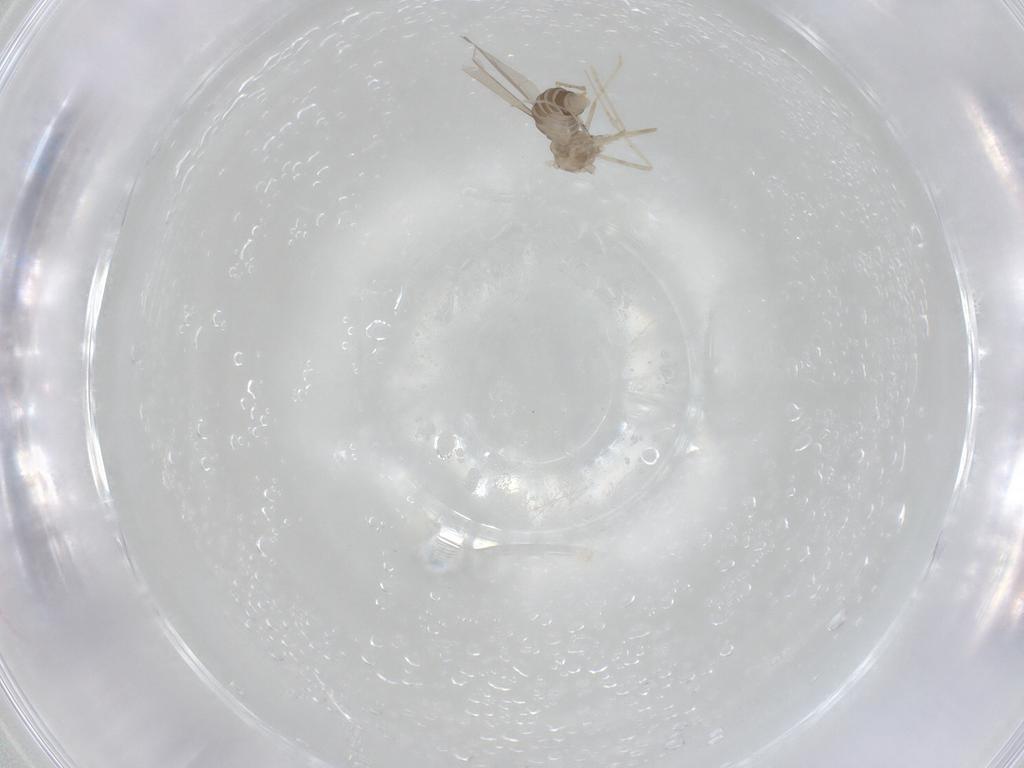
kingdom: Animalia
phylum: Arthropoda
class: Insecta
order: Diptera
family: Cecidomyiidae
